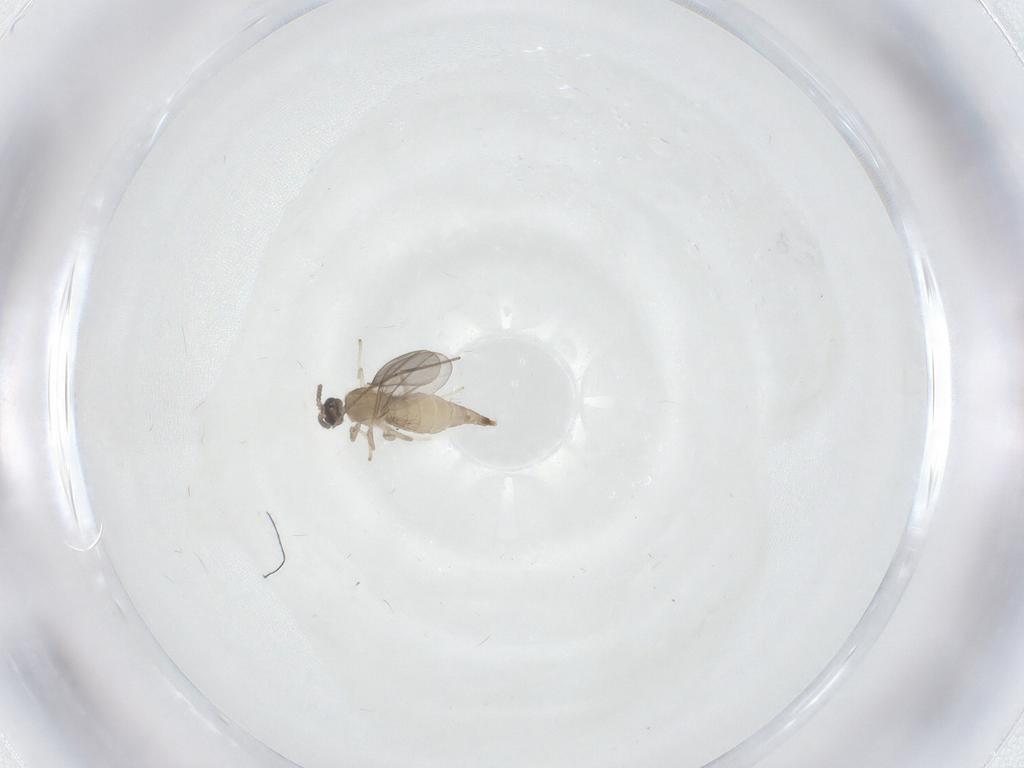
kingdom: Animalia
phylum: Arthropoda
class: Insecta
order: Diptera
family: Cecidomyiidae
